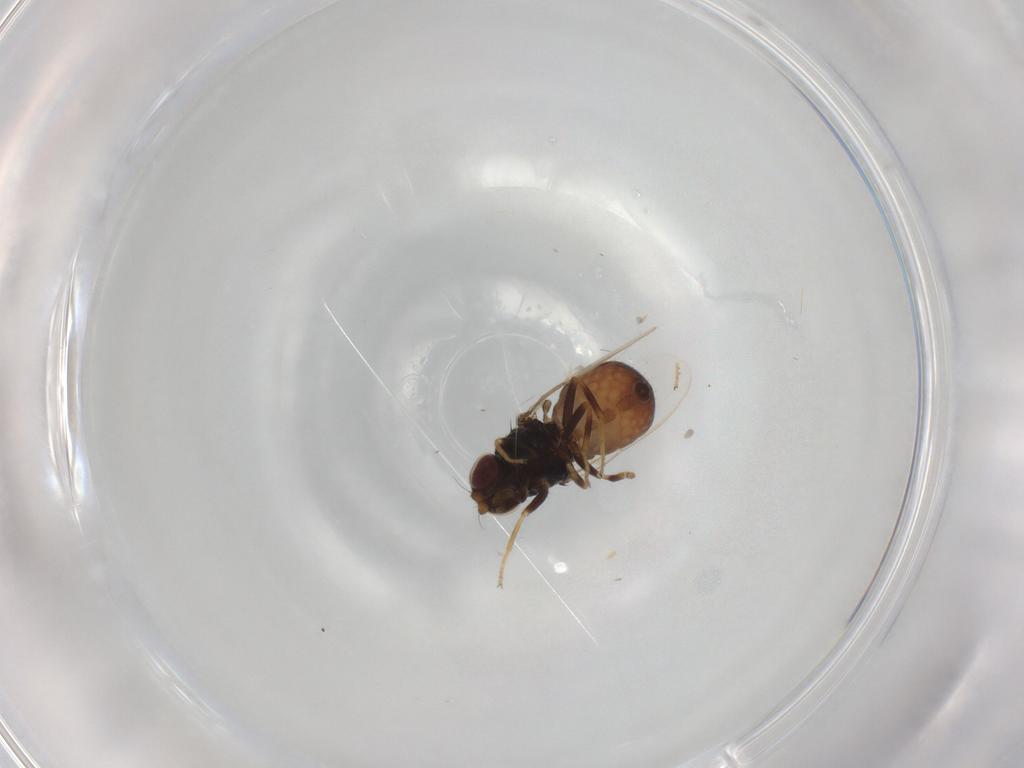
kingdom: Animalia
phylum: Arthropoda
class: Insecta
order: Diptera
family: Chloropidae
